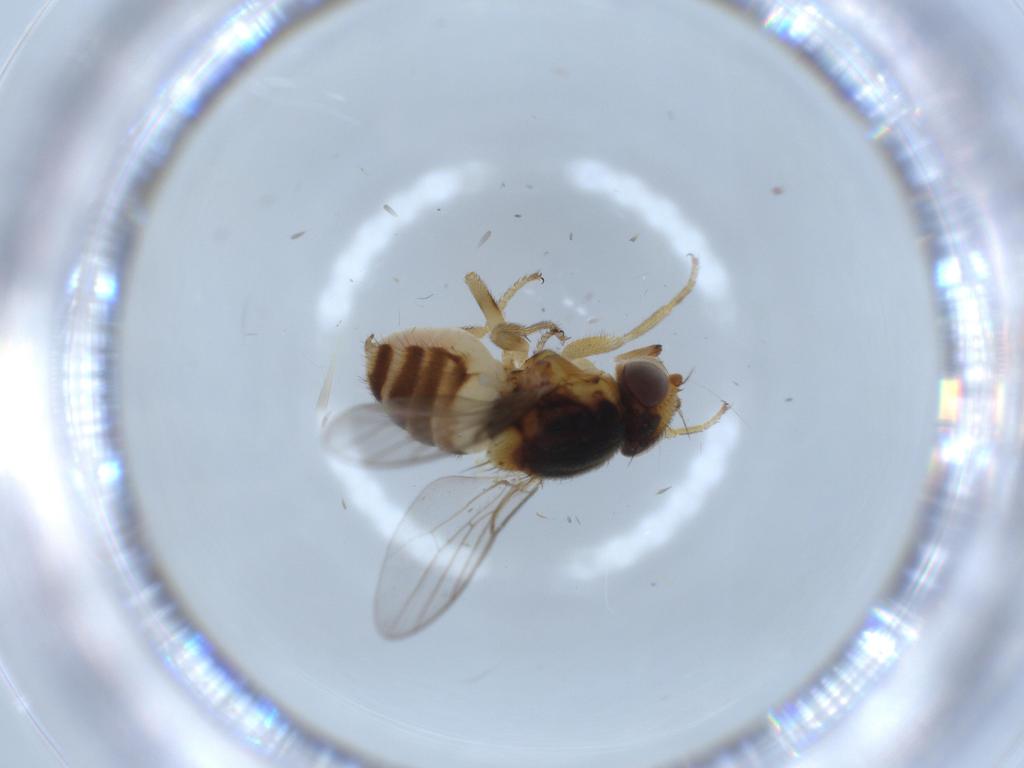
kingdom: Animalia
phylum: Arthropoda
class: Insecta
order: Diptera
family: Chloropidae
